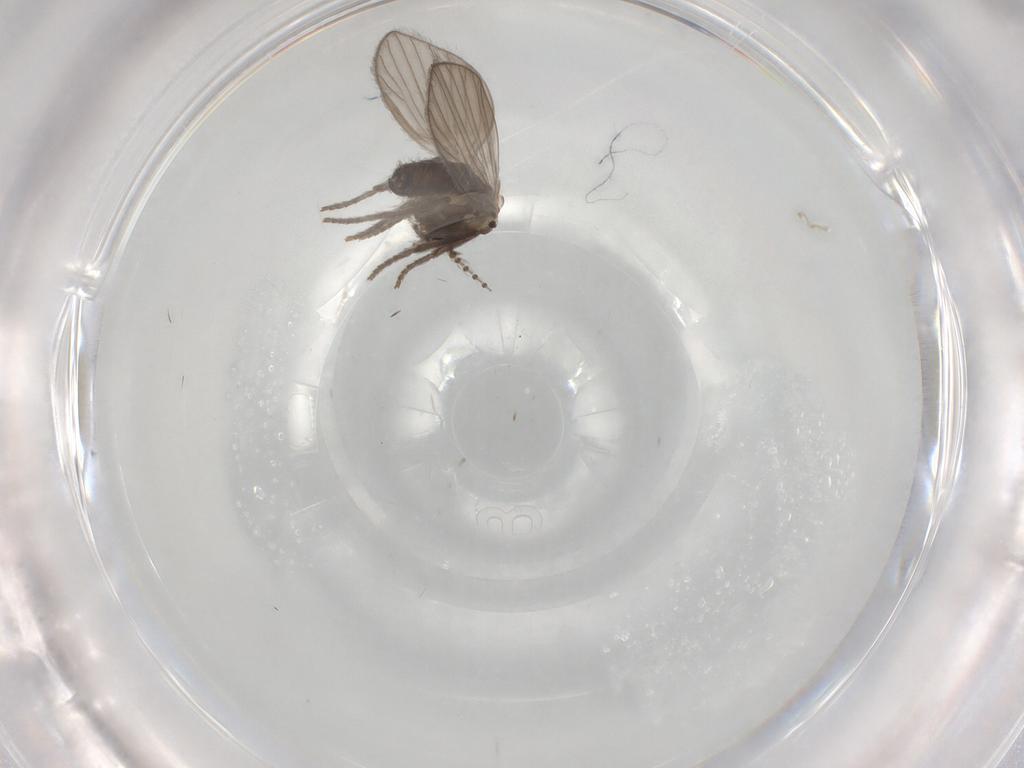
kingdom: Animalia
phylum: Arthropoda
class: Insecta
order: Diptera
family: Psychodidae
